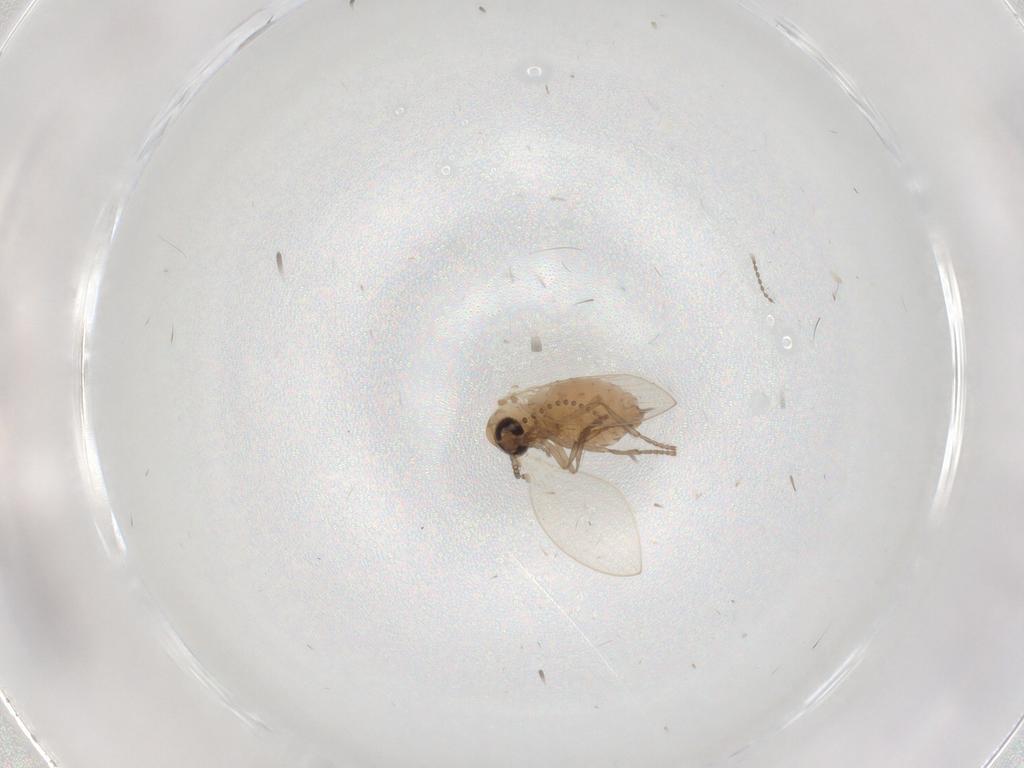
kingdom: Animalia
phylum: Arthropoda
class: Insecta
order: Diptera
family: Psychodidae
